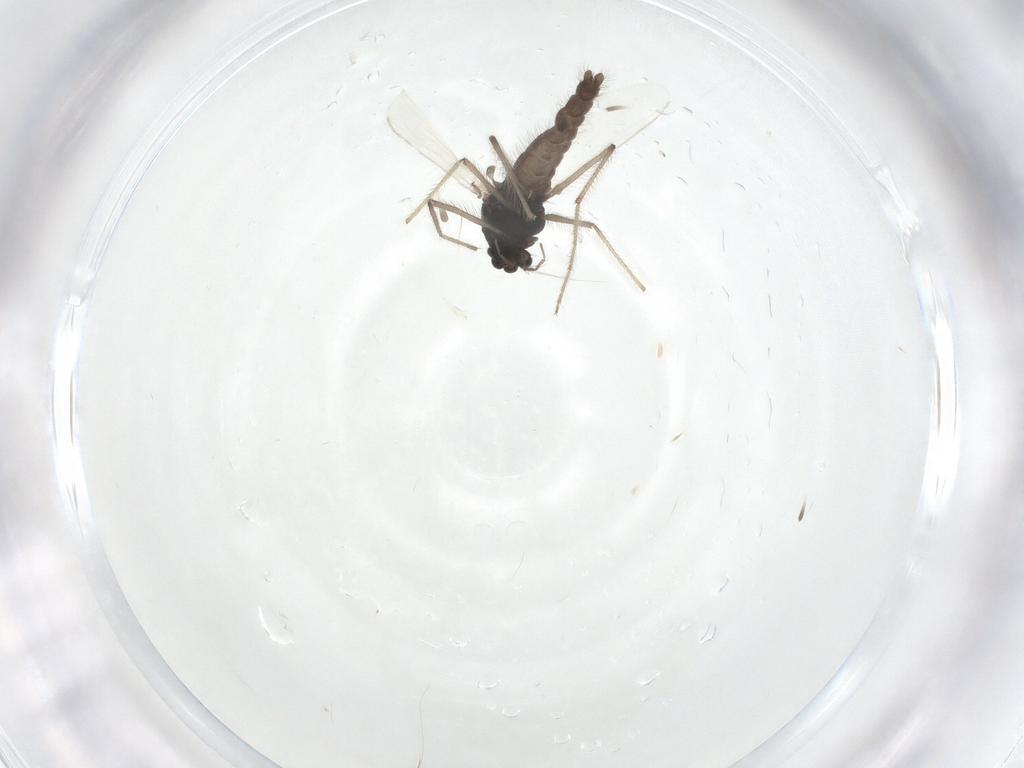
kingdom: Animalia
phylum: Arthropoda
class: Insecta
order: Diptera
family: Chironomidae
